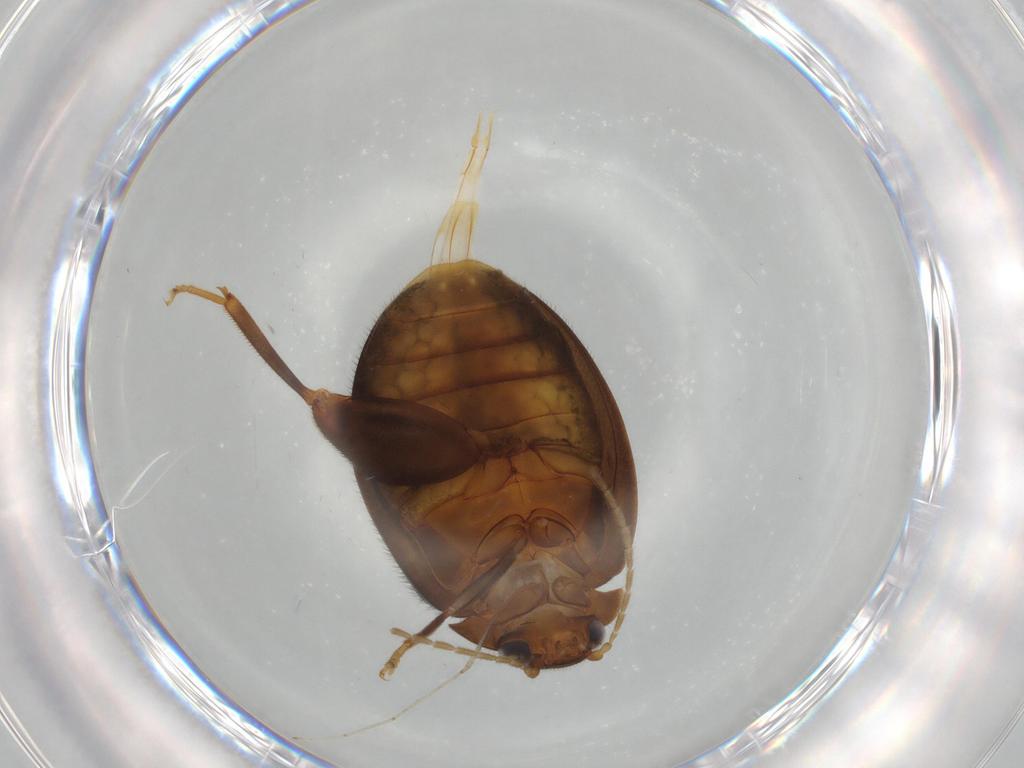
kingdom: Animalia
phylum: Arthropoda
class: Insecta
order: Coleoptera
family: Scirtidae
